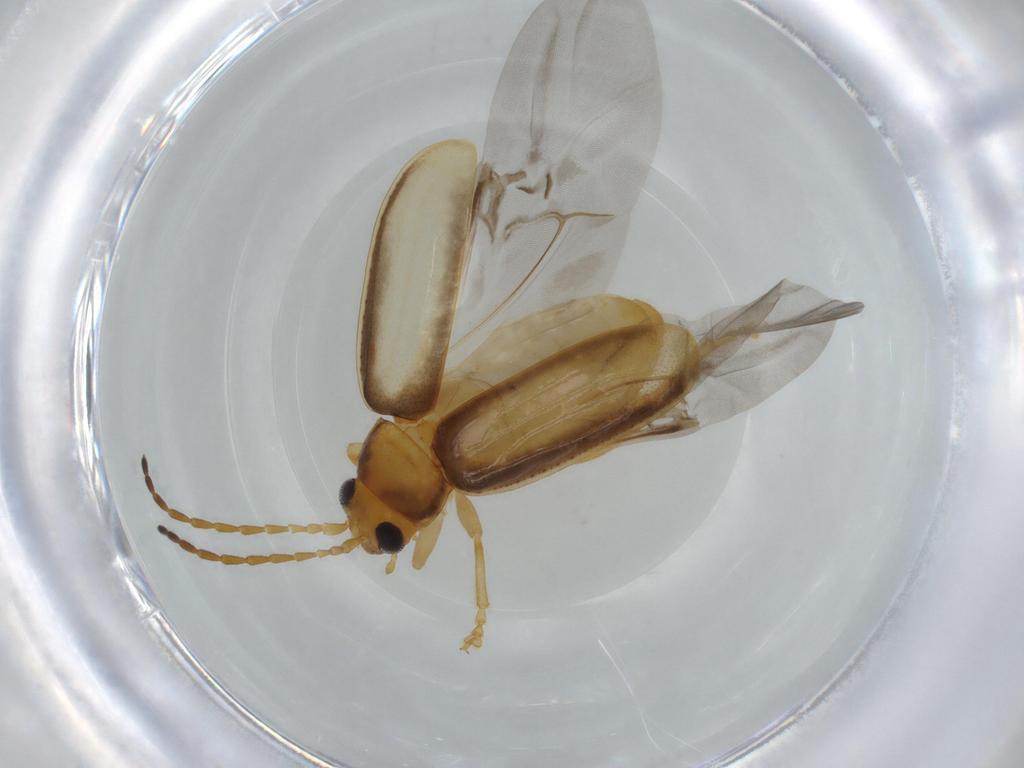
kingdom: Animalia
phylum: Arthropoda
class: Insecta
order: Coleoptera
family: Chrysomelidae
